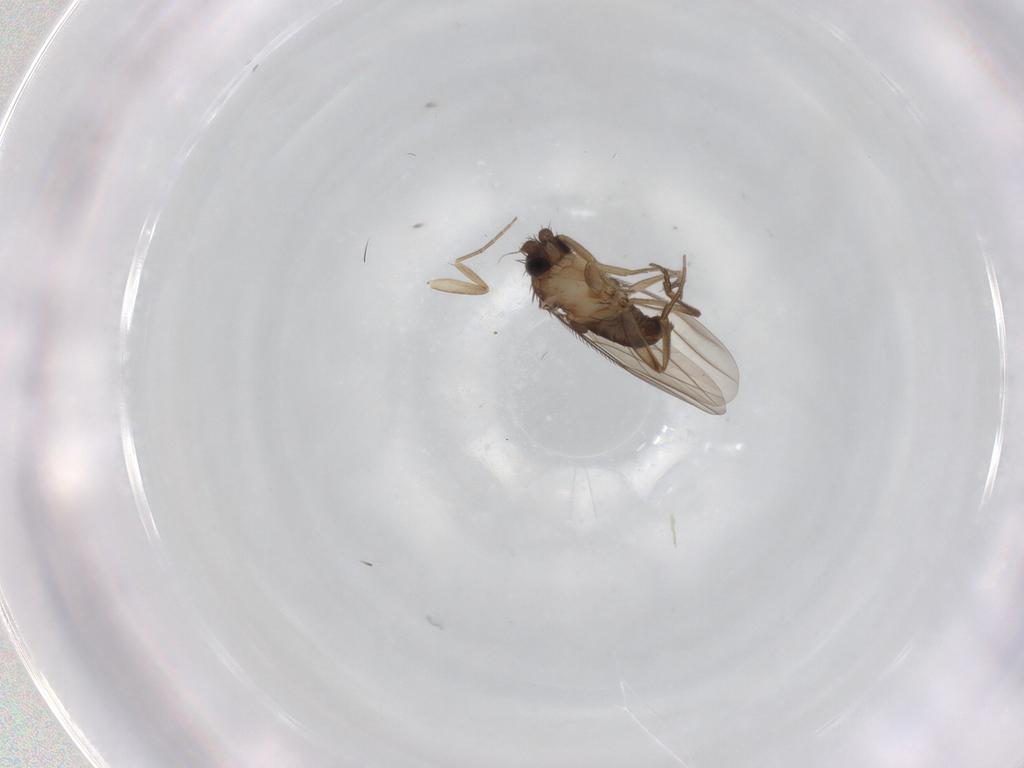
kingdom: Animalia
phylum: Arthropoda
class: Insecta
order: Diptera
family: Phoridae
